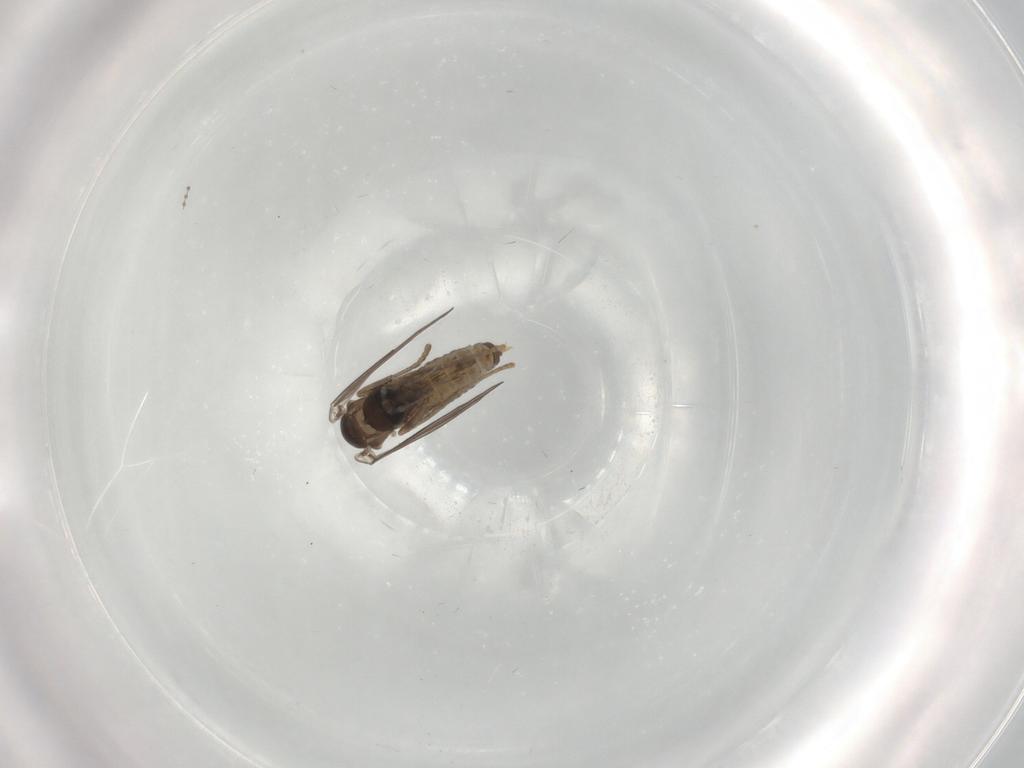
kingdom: Animalia
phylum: Arthropoda
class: Insecta
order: Diptera
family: Psychodidae
